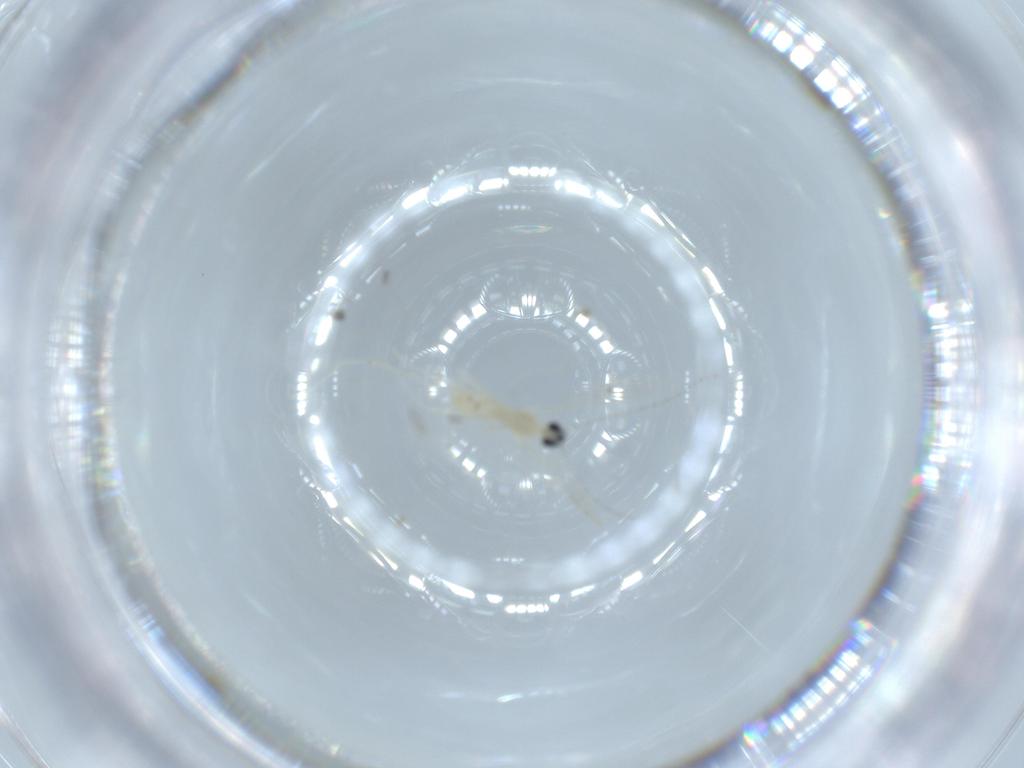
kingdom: Animalia
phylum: Arthropoda
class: Insecta
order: Diptera
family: Cecidomyiidae
